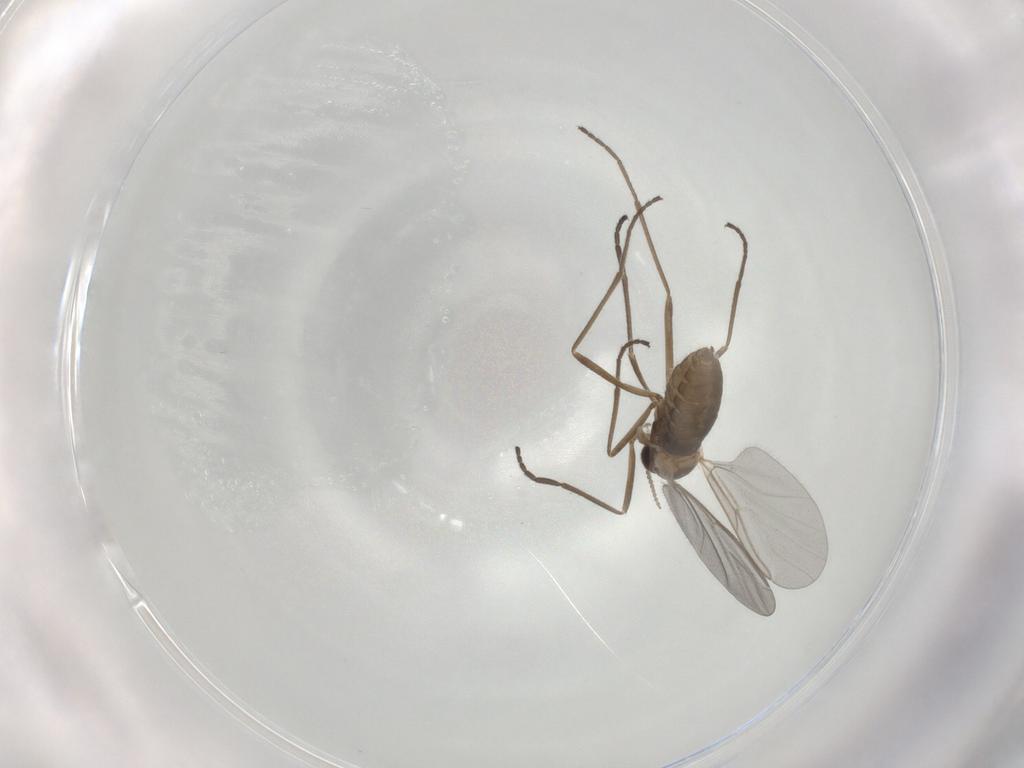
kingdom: Animalia
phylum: Arthropoda
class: Insecta
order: Diptera
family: Cecidomyiidae
